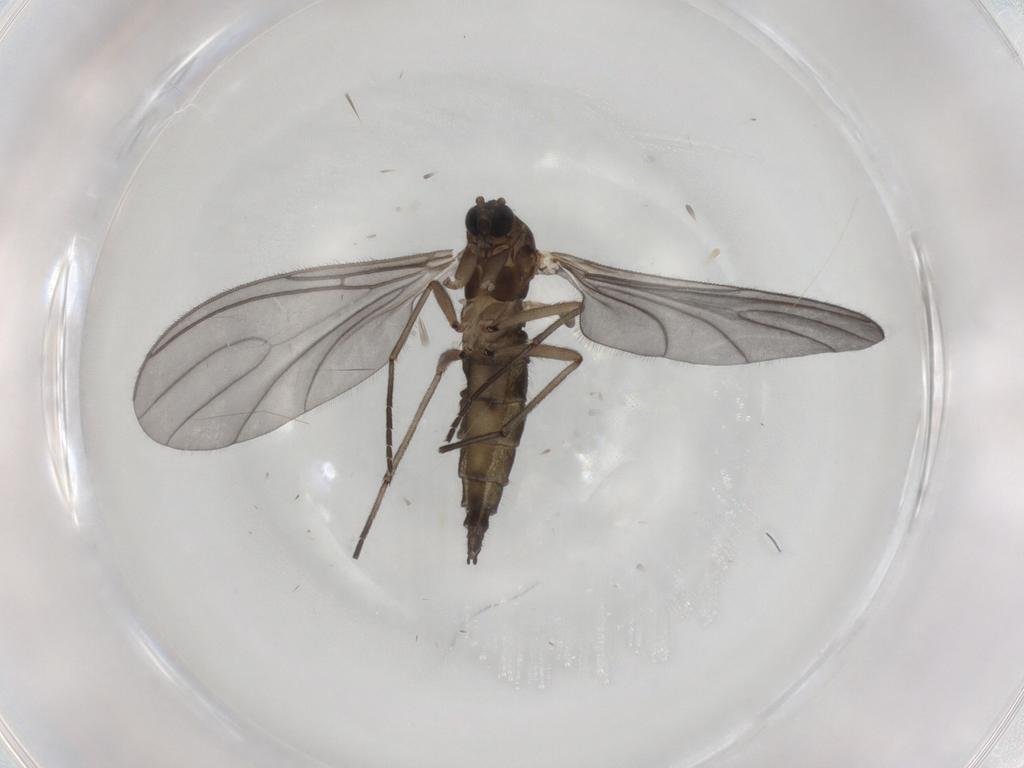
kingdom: Animalia
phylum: Arthropoda
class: Insecta
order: Diptera
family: Sciaridae
